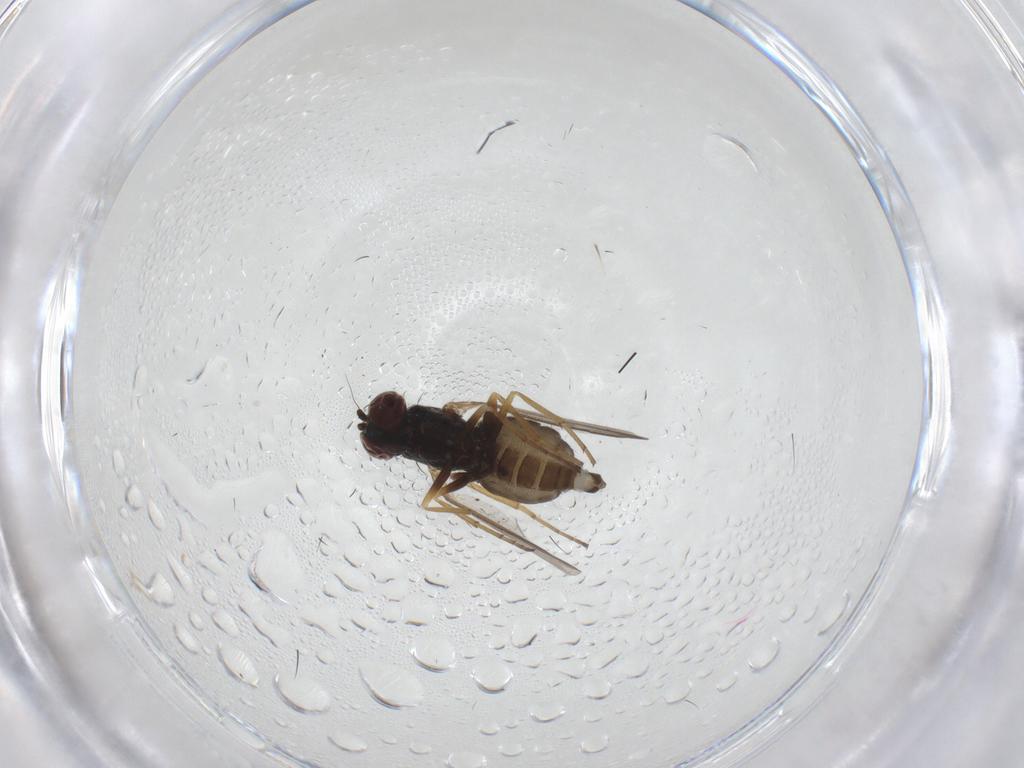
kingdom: Animalia
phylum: Arthropoda
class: Insecta
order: Diptera
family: Dolichopodidae
